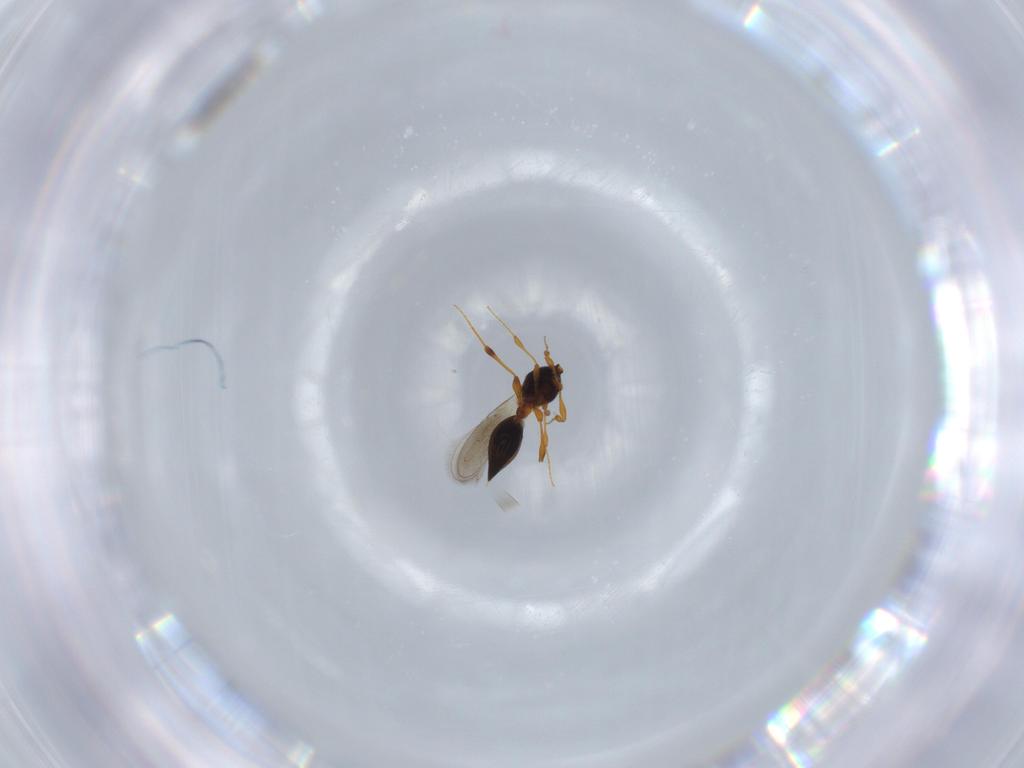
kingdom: Animalia
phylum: Arthropoda
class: Insecta
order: Hymenoptera
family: Platygastridae
